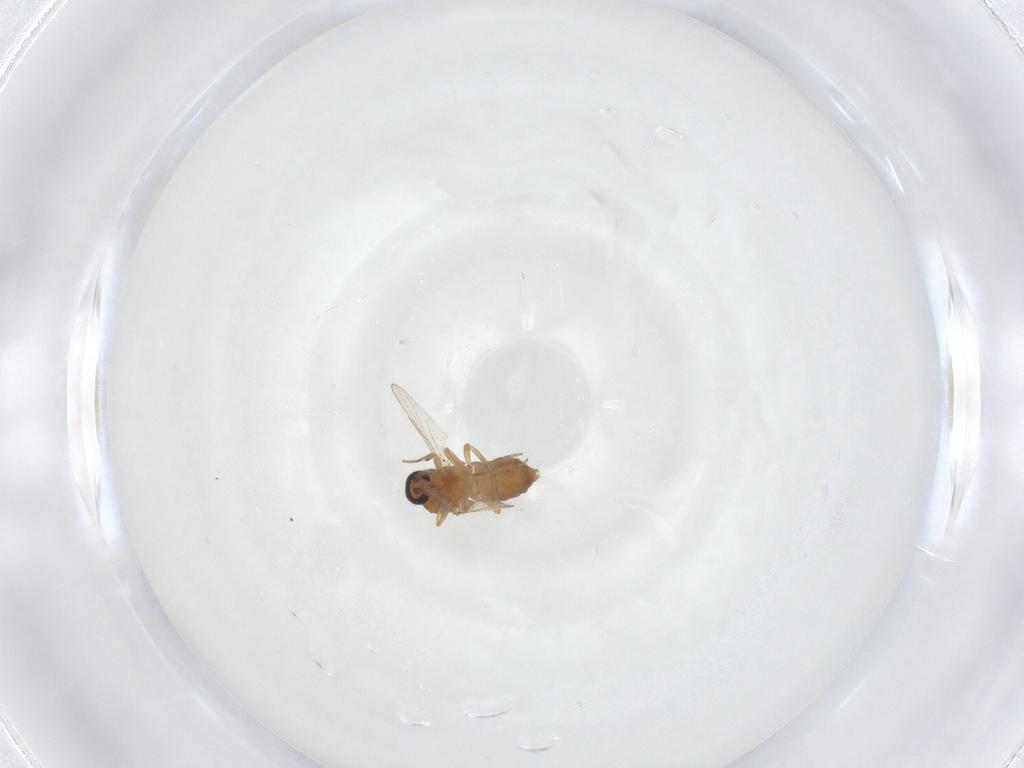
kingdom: Animalia
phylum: Arthropoda
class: Insecta
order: Diptera
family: Ceratopogonidae
